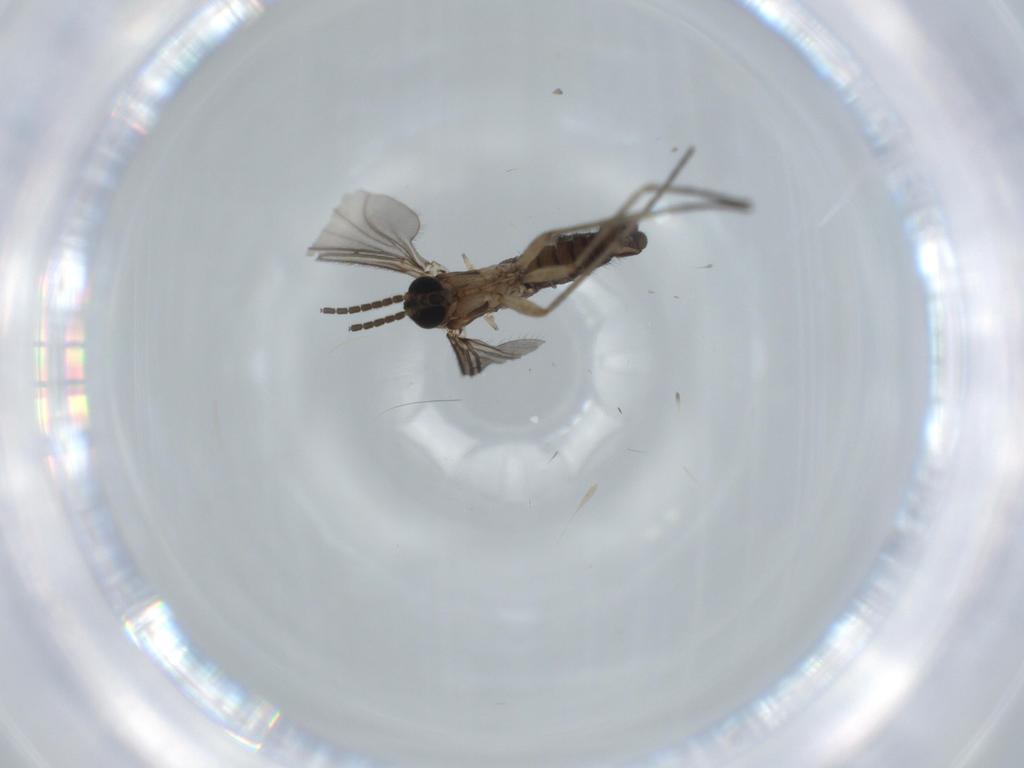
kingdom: Animalia
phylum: Arthropoda
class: Insecta
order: Diptera
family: Sciaridae
